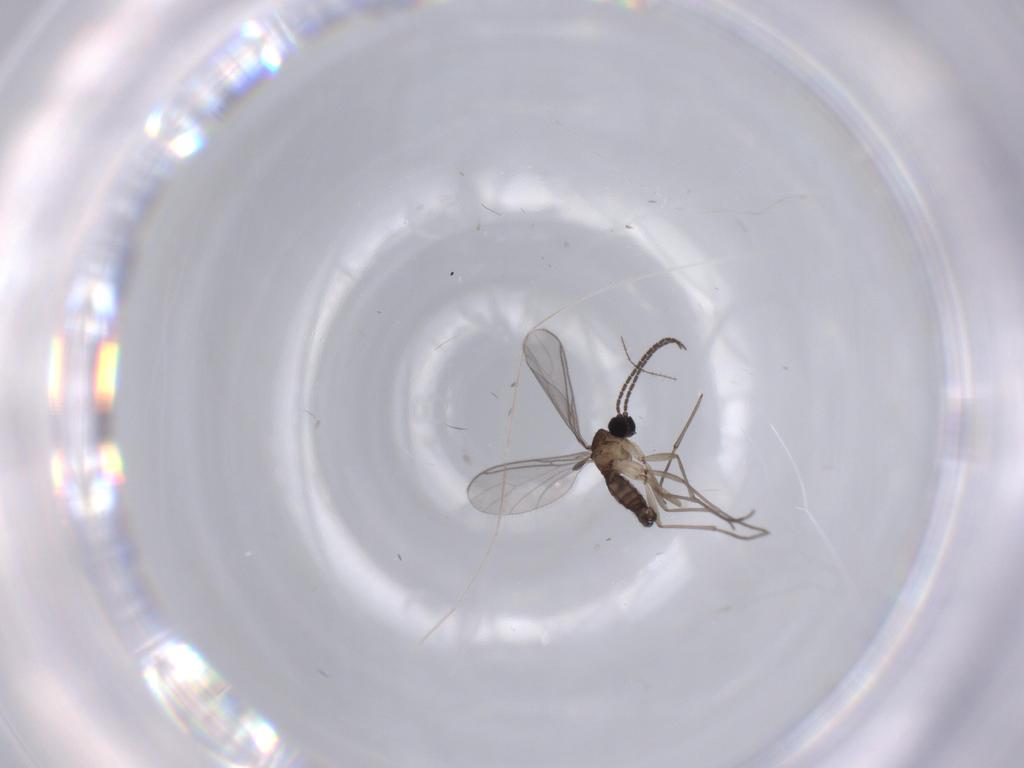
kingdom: Animalia
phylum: Arthropoda
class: Insecta
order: Diptera
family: Sciaridae
